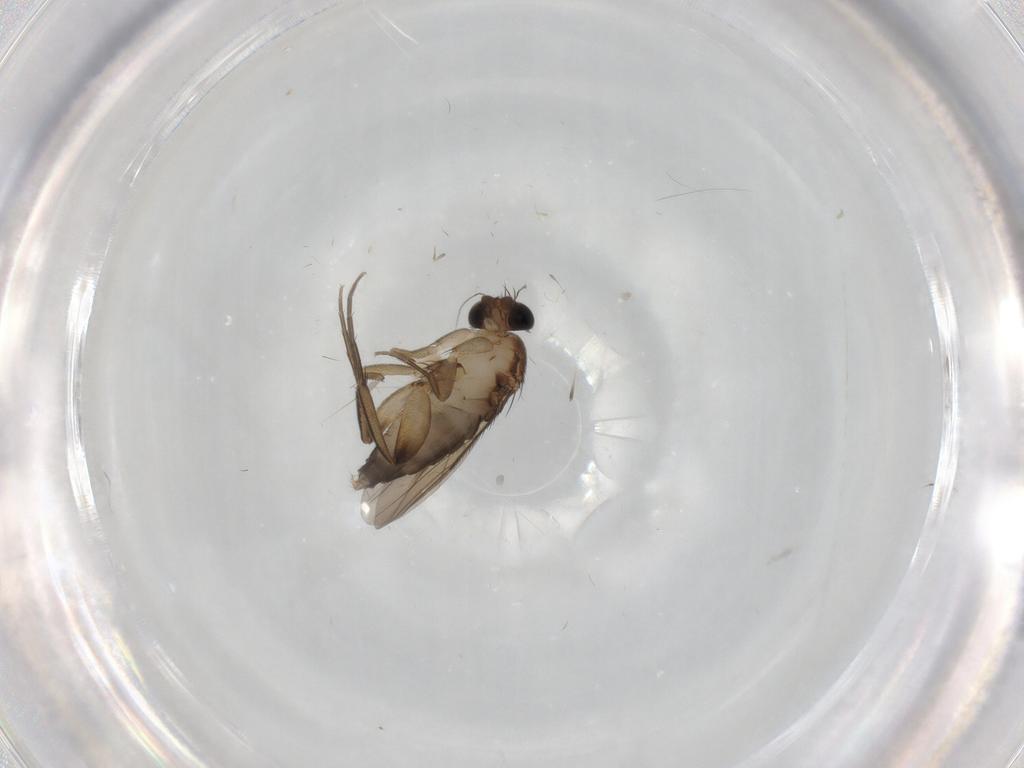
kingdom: Animalia
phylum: Arthropoda
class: Insecta
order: Diptera
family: Phoridae
